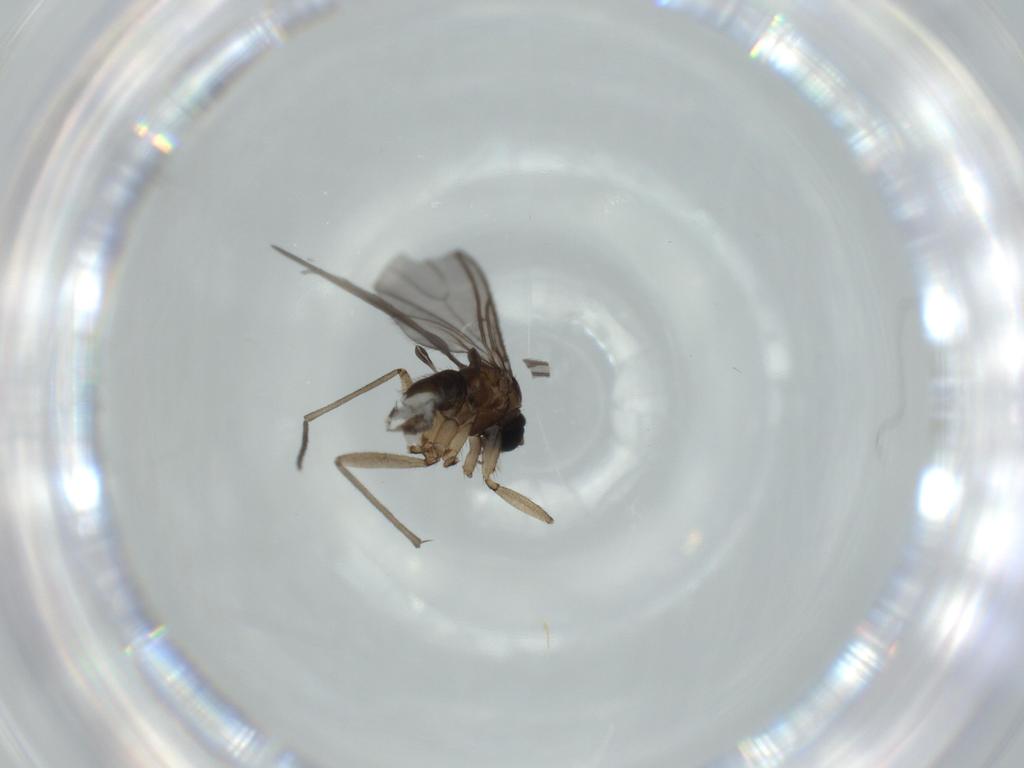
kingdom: Animalia
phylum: Arthropoda
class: Insecta
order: Diptera
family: Sciaridae
